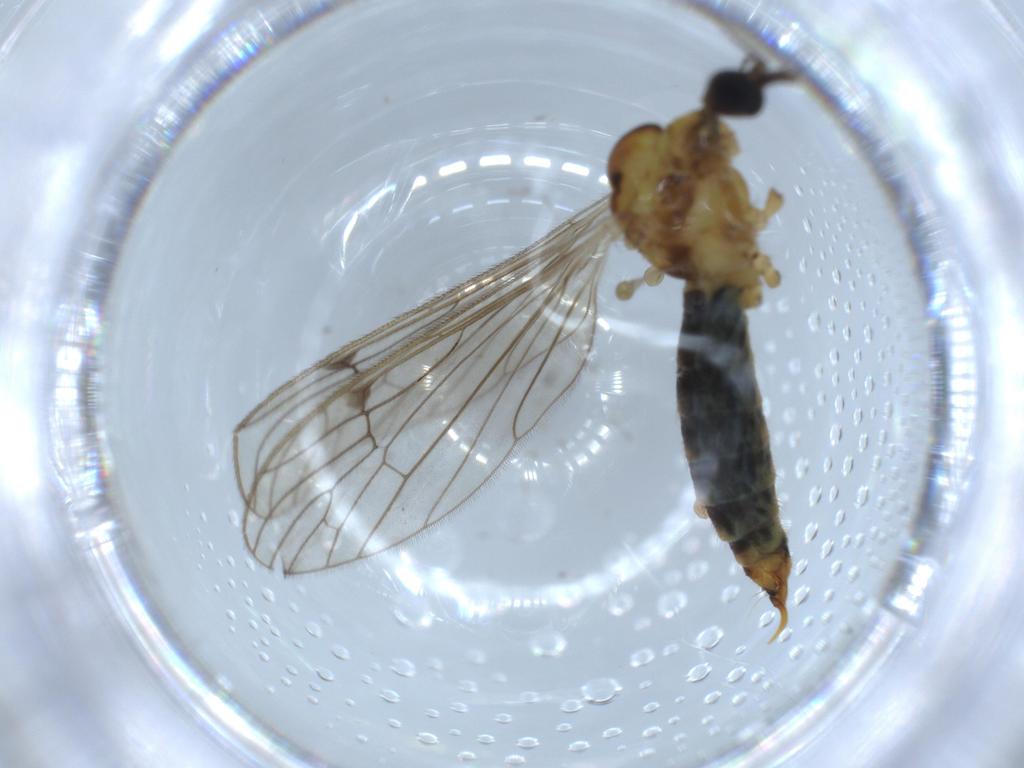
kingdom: Animalia
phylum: Arthropoda
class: Insecta
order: Diptera
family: Limoniidae
